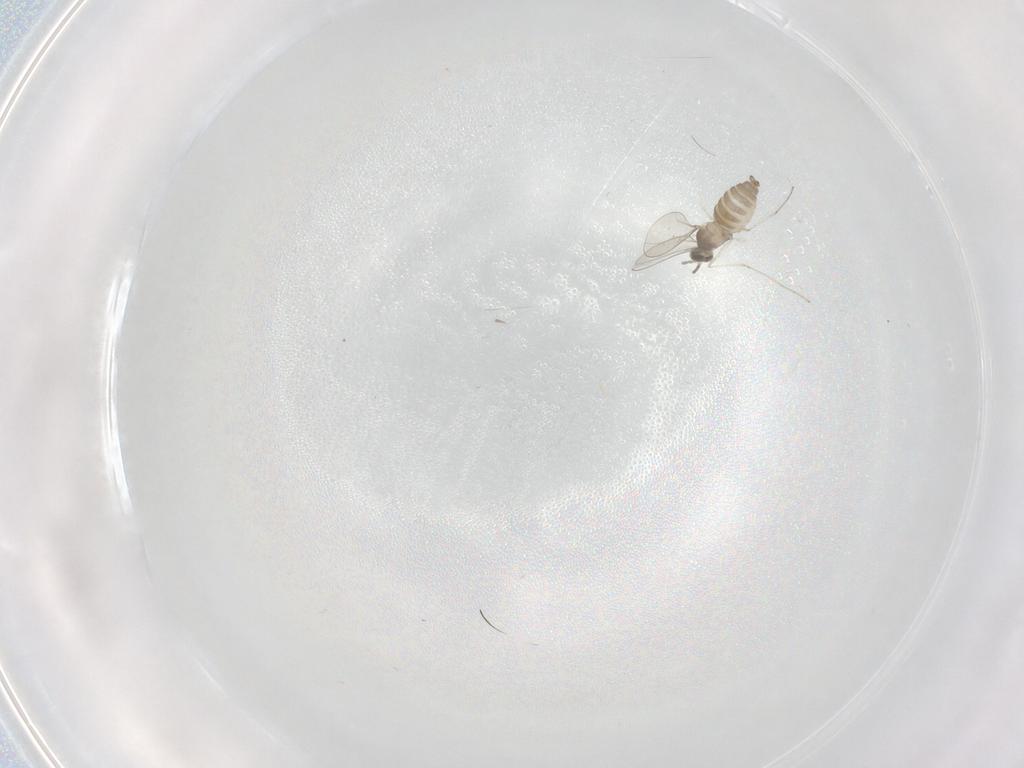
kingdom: Animalia
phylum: Arthropoda
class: Insecta
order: Diptera
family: Cecidomyiidae
